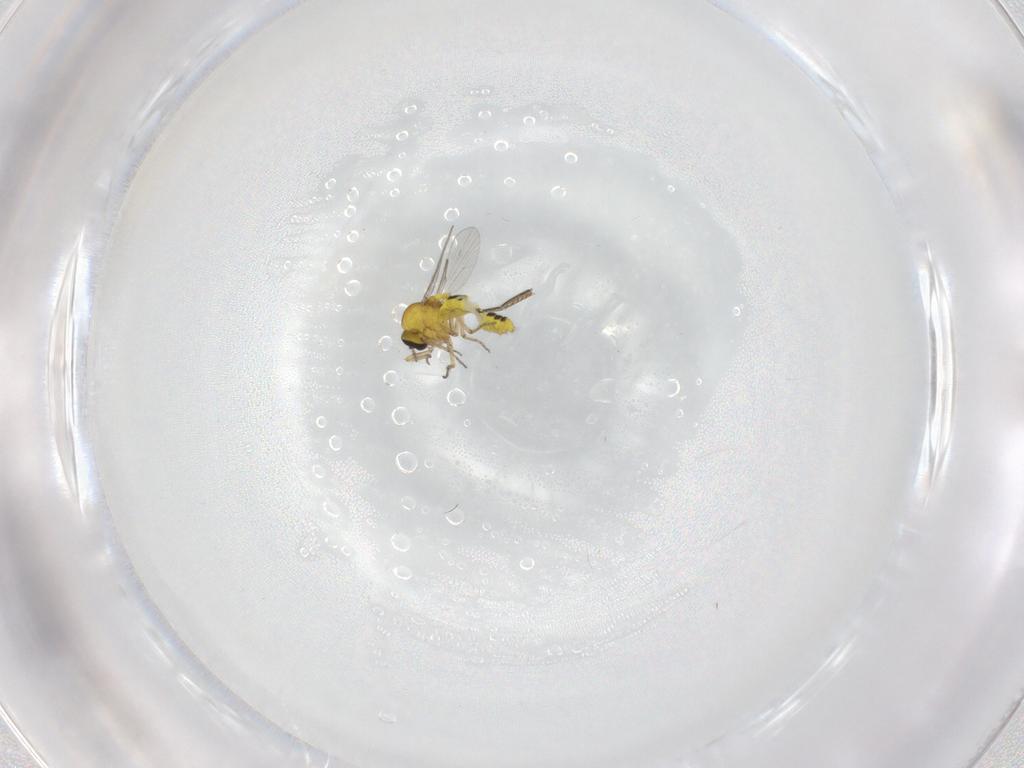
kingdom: Animalia
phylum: Arthropoda
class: Insecta
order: Diptera
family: Ceratopogonidae
